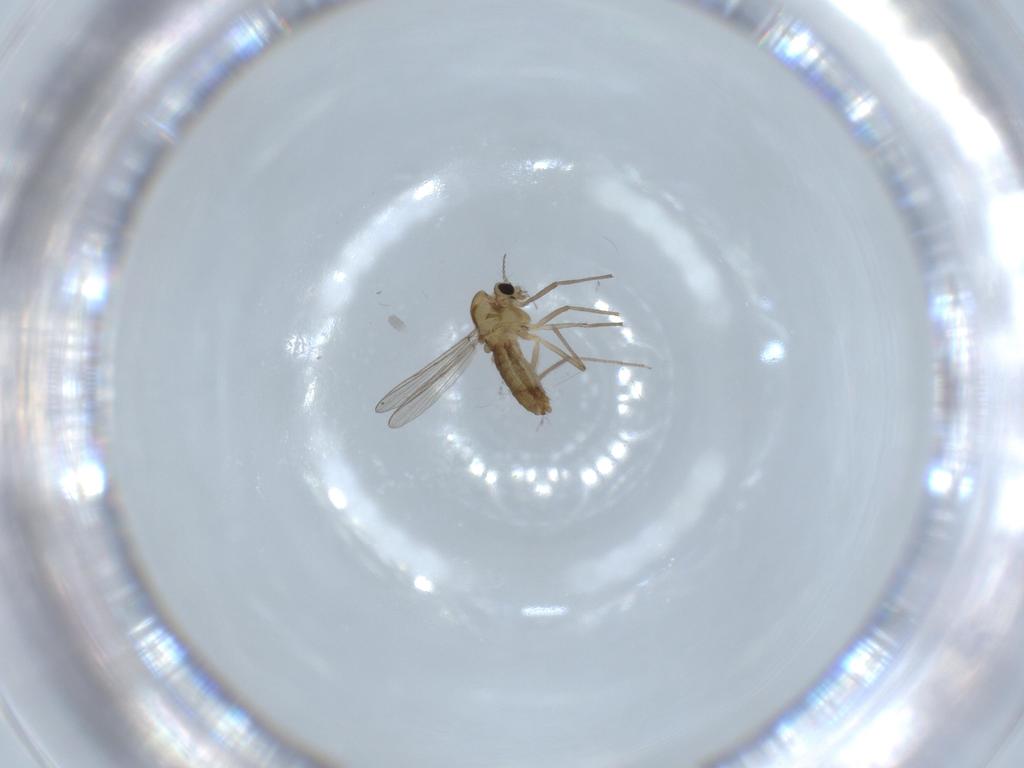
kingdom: Animalia
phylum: Arthropoda
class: Insecta
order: Diptera
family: Chironomidae
